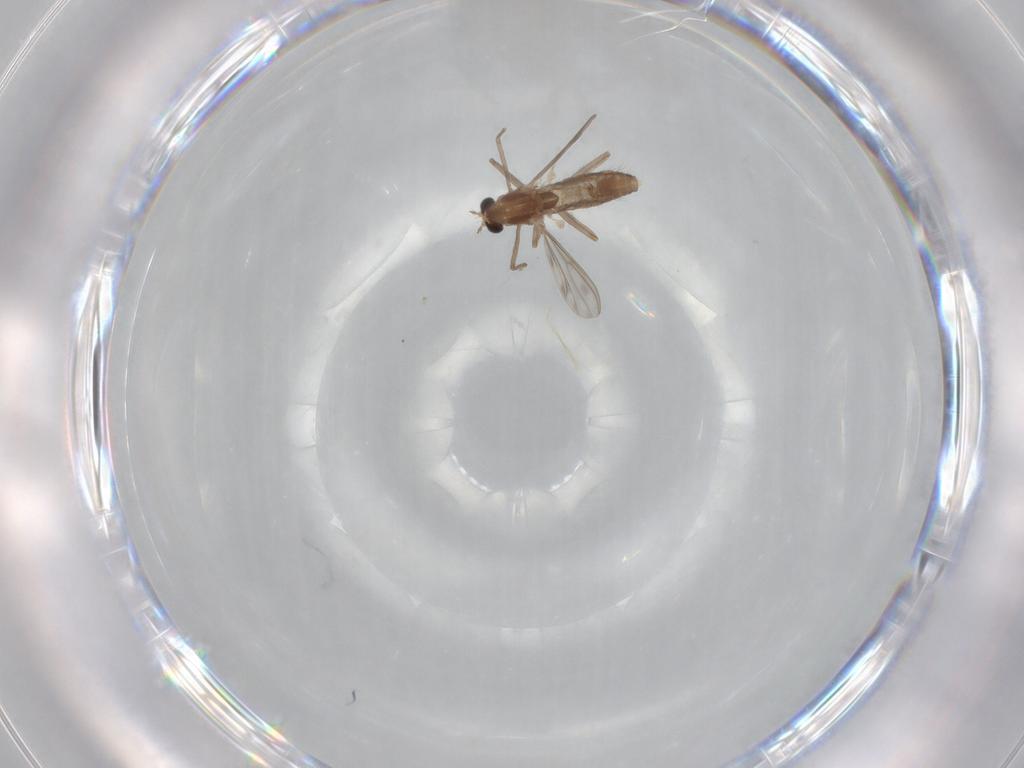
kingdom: Animalia
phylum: Arthropoda
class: Insecta
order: Diptera
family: Chironomidae
